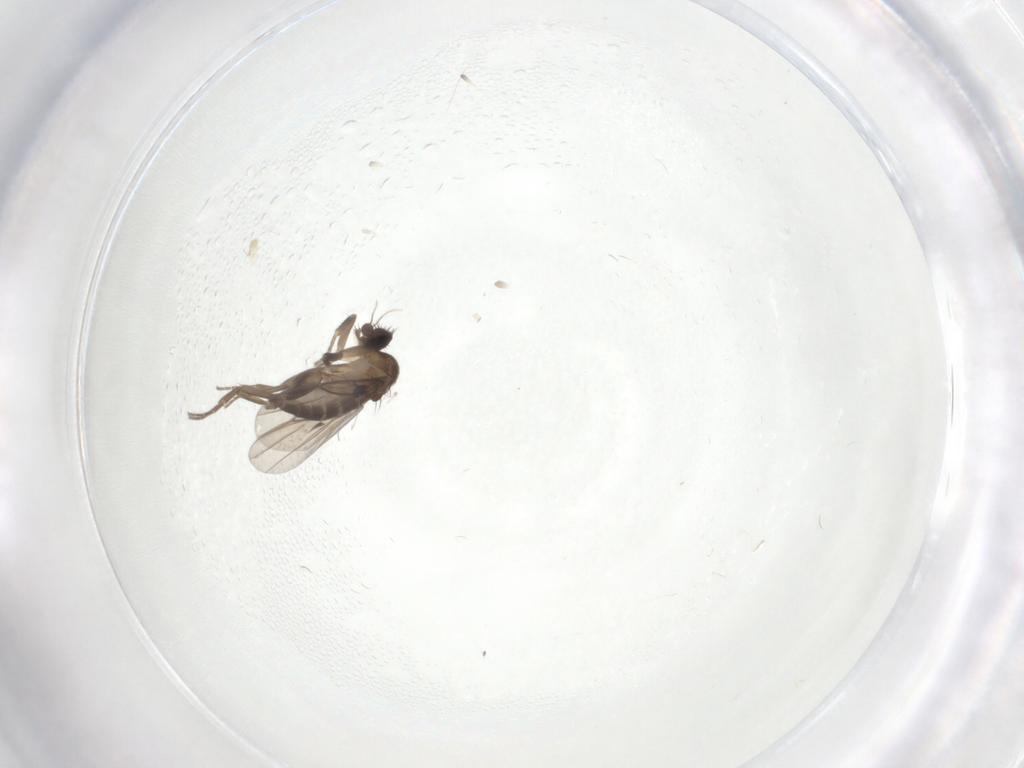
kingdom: Animalia
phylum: Arthropoda
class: Insecta
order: Diptera
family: Phoridae
